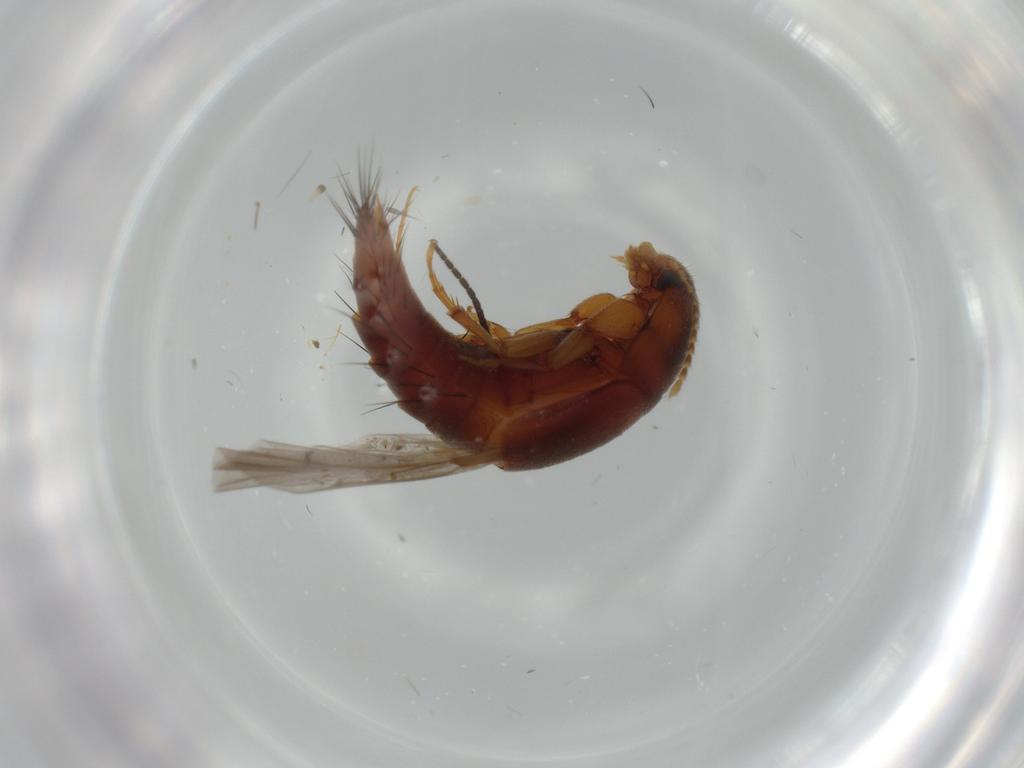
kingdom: Animalia
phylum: Arthropoda
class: Insecta
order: Coleoptera
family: Staphylinidae
